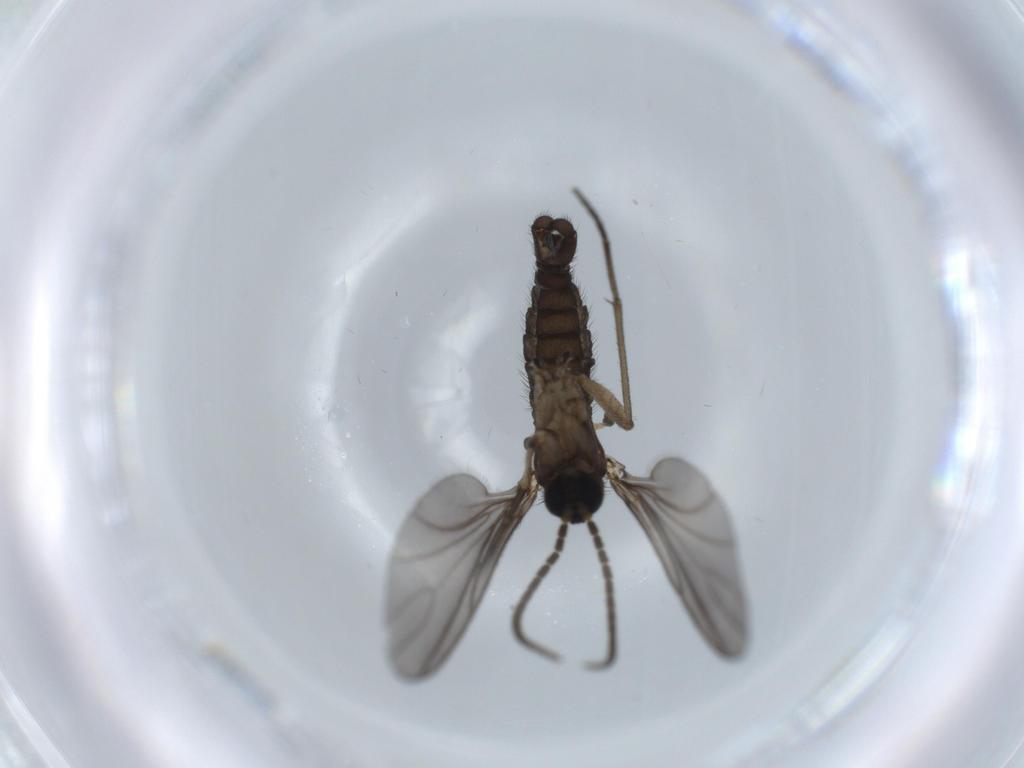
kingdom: Animalia
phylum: Arthropoda
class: Insecta
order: Diptera
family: Sciaridae
